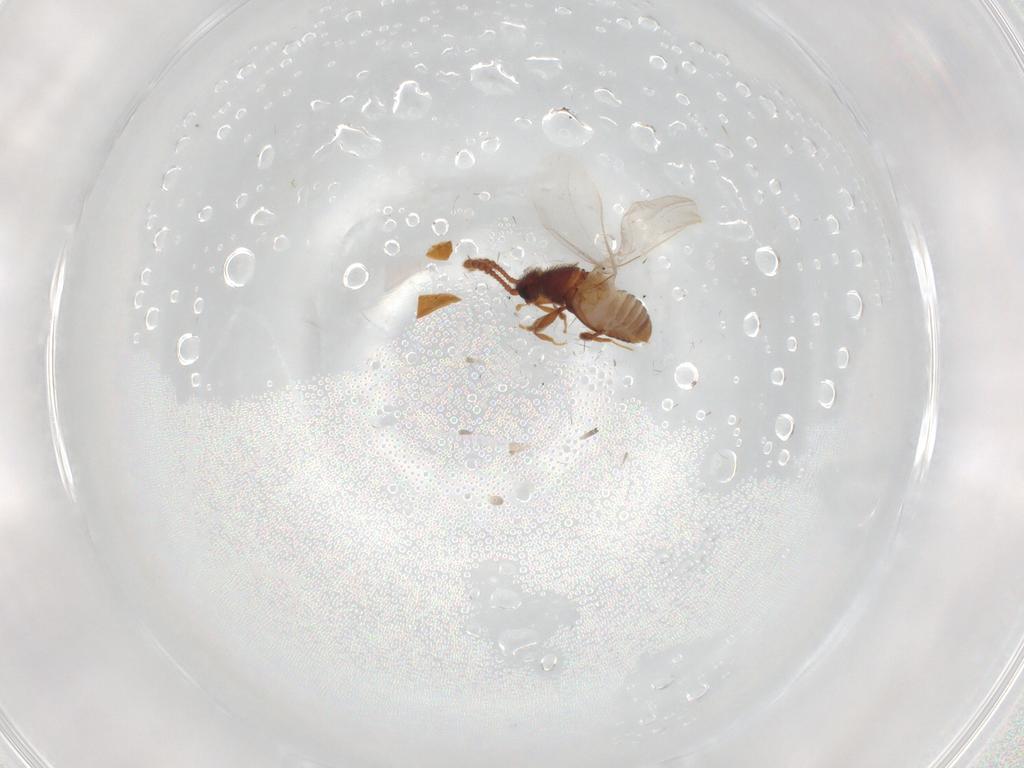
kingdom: Animalia
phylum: Arthropoda
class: Insecta
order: Coleoptera
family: Staphylinidae
